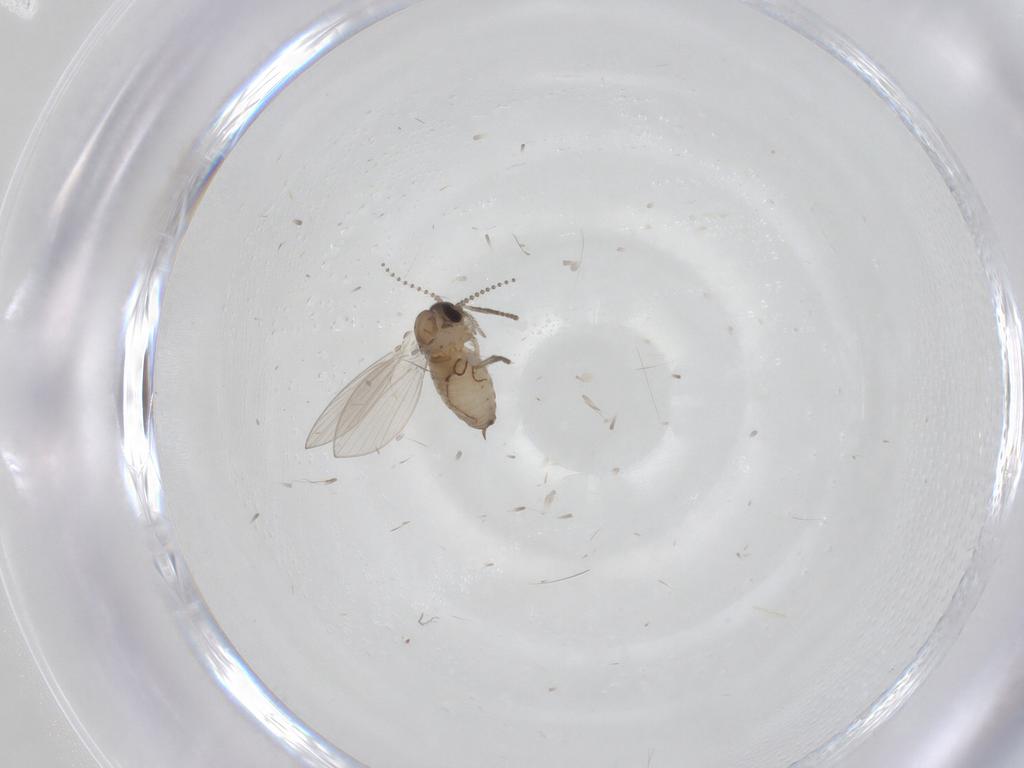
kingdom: Animalia
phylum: Arthropoda
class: Insecta
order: Diptera
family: Psychodidae
